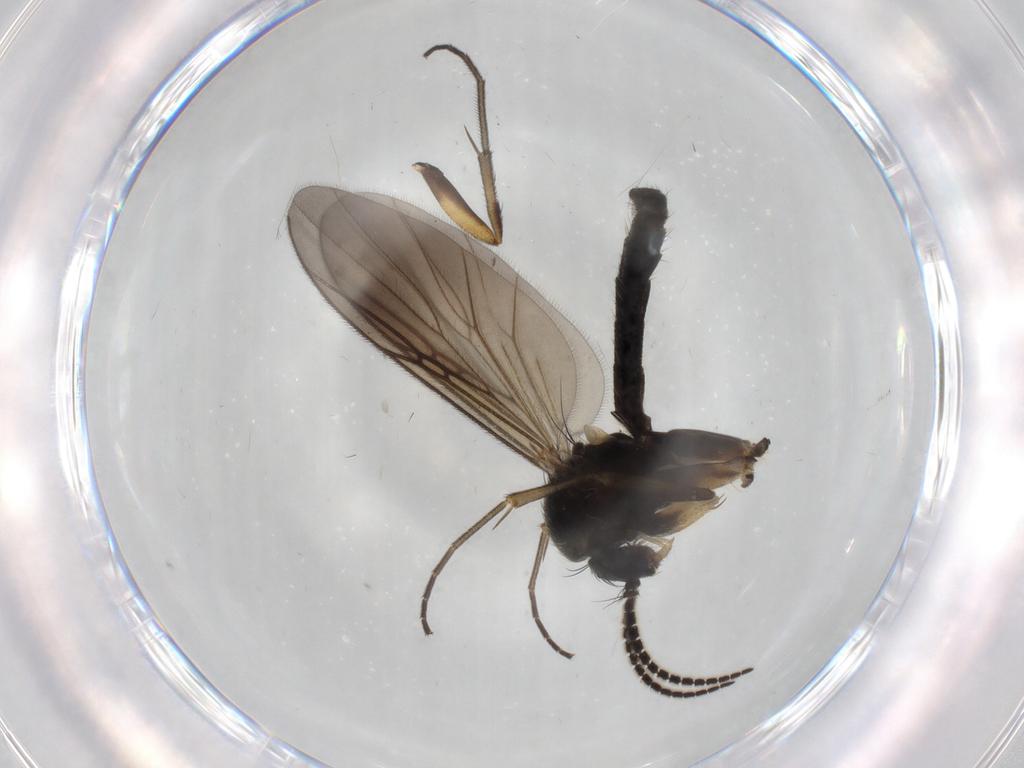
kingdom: Animalia
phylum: Arthropoda
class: Insecta
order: Diptera
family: Mycetophilidae
